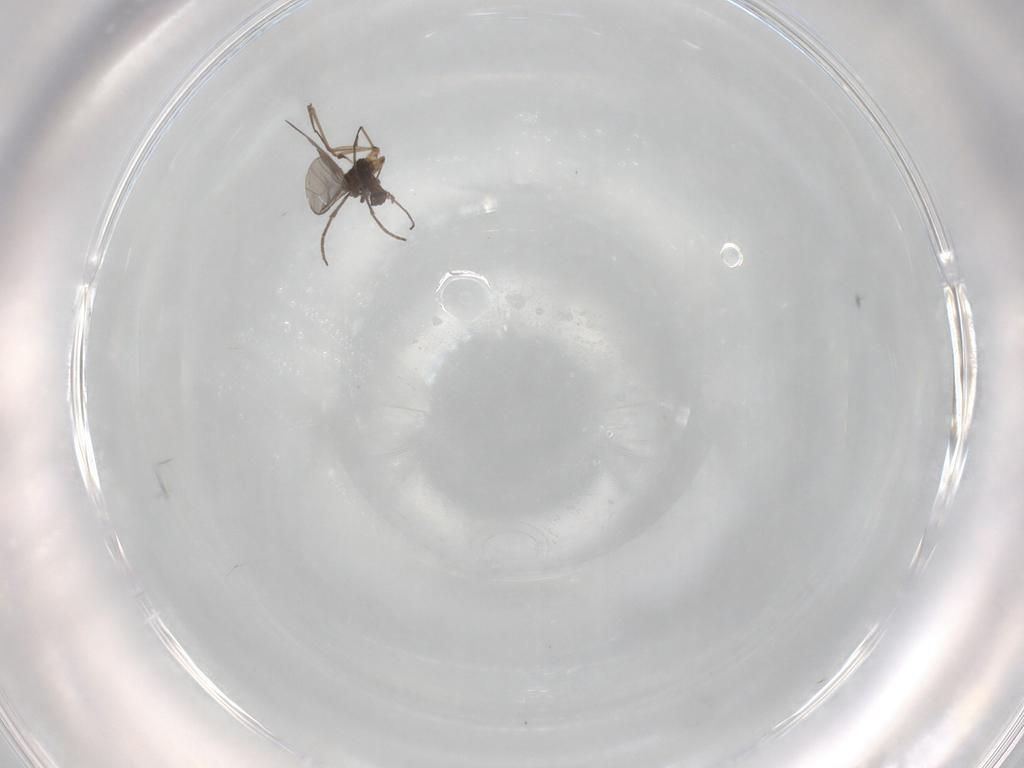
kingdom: Animalia
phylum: Arthropoda
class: Insecta
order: Diptera
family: Sciaridae
